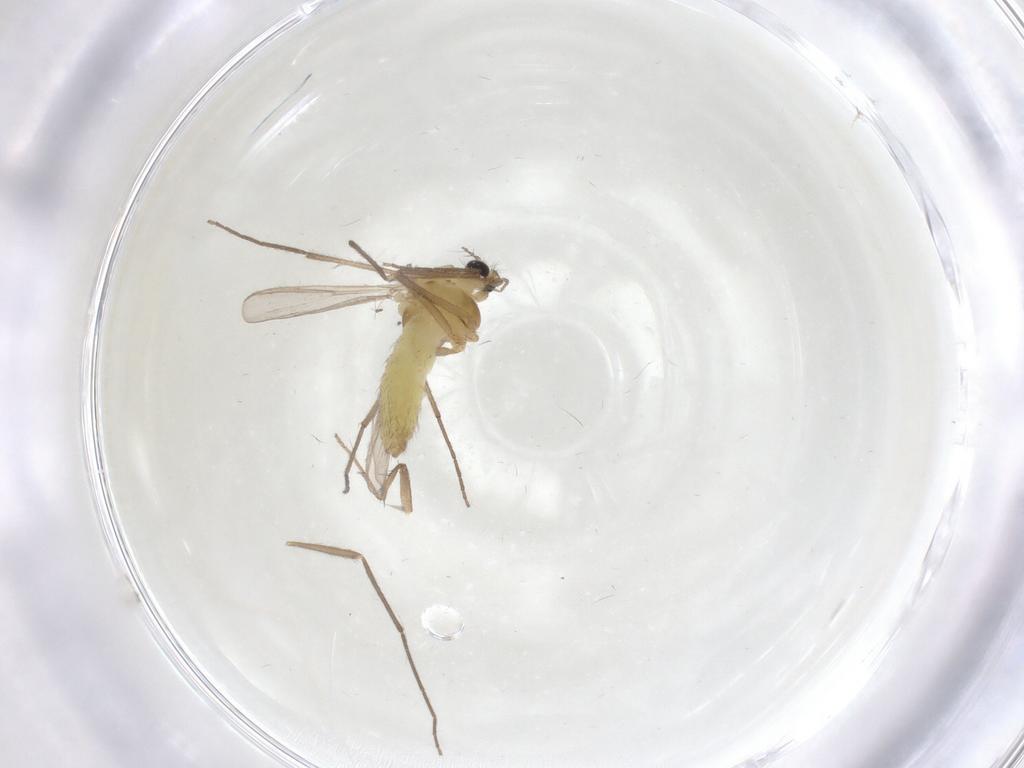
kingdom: Animalia
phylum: Arthropoda
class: Insecta
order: Diptera
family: Chironomidae
